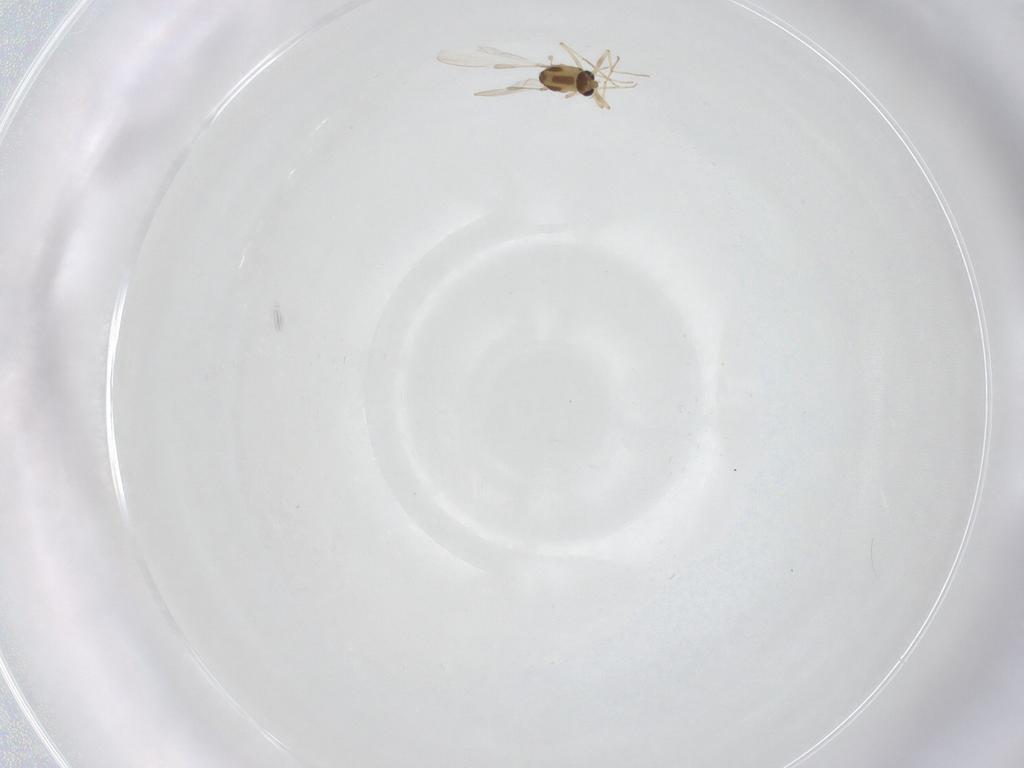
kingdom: Animalia
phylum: Arthropoda
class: Insecta
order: Diptera
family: Chironomidae
